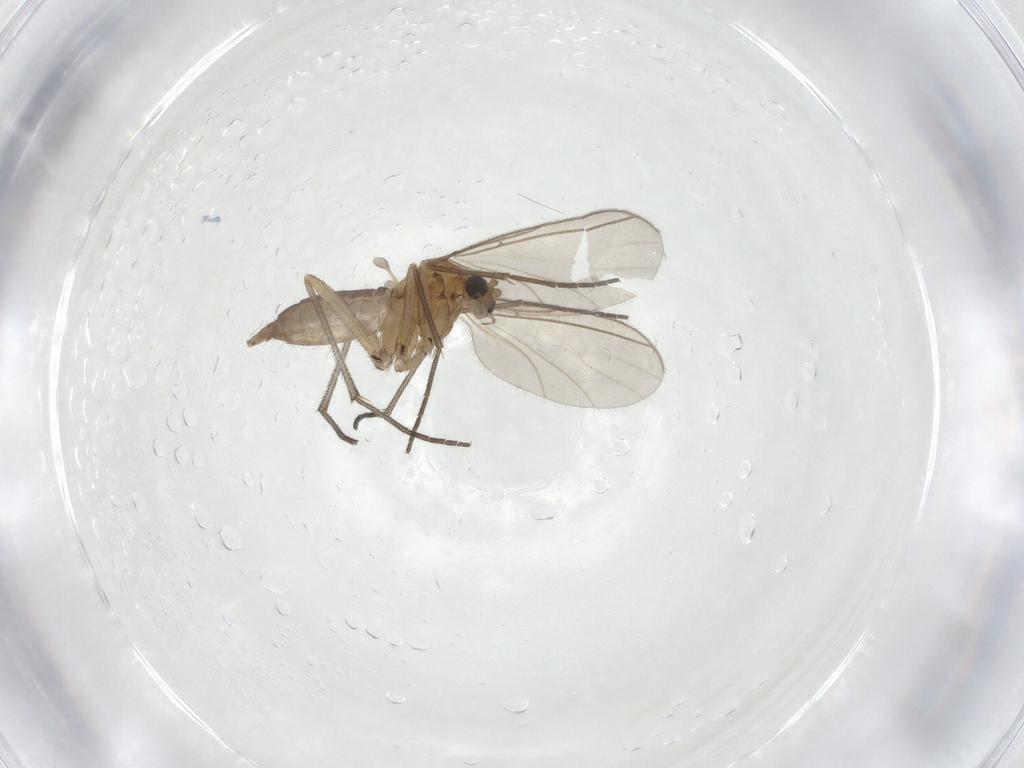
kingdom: Animalia
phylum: Arthropoda
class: Insecta
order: Diptera
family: Sciaridae
